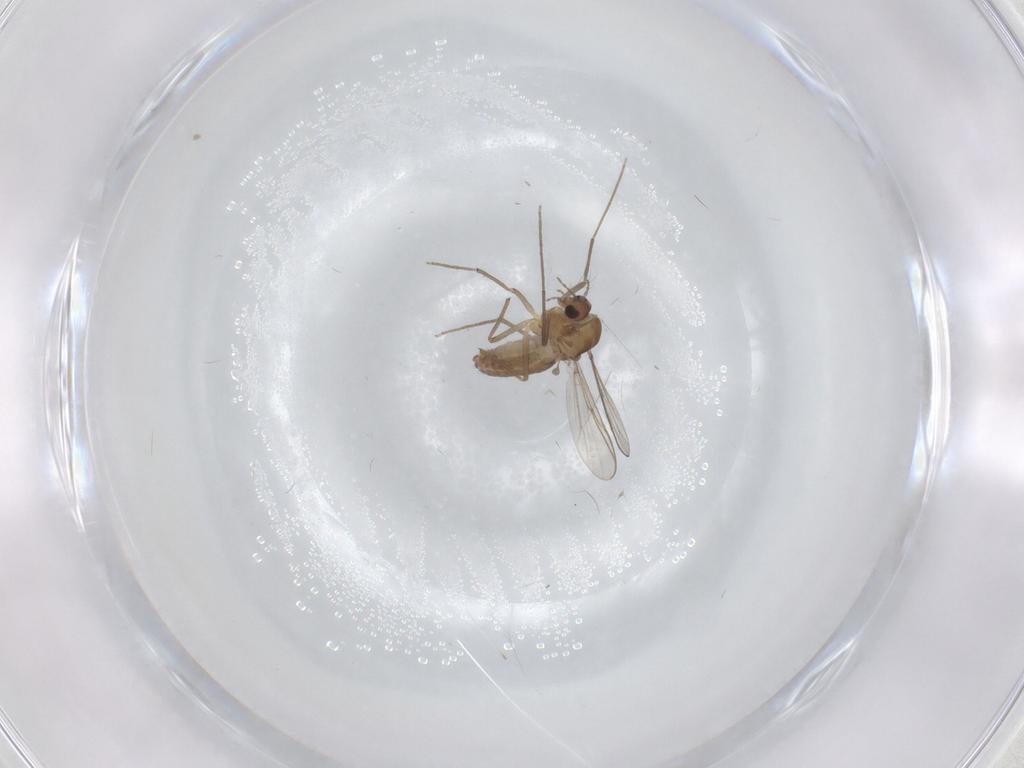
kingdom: Animalia
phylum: Arthropoda
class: Insecta
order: Diptera
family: Chironomidae
